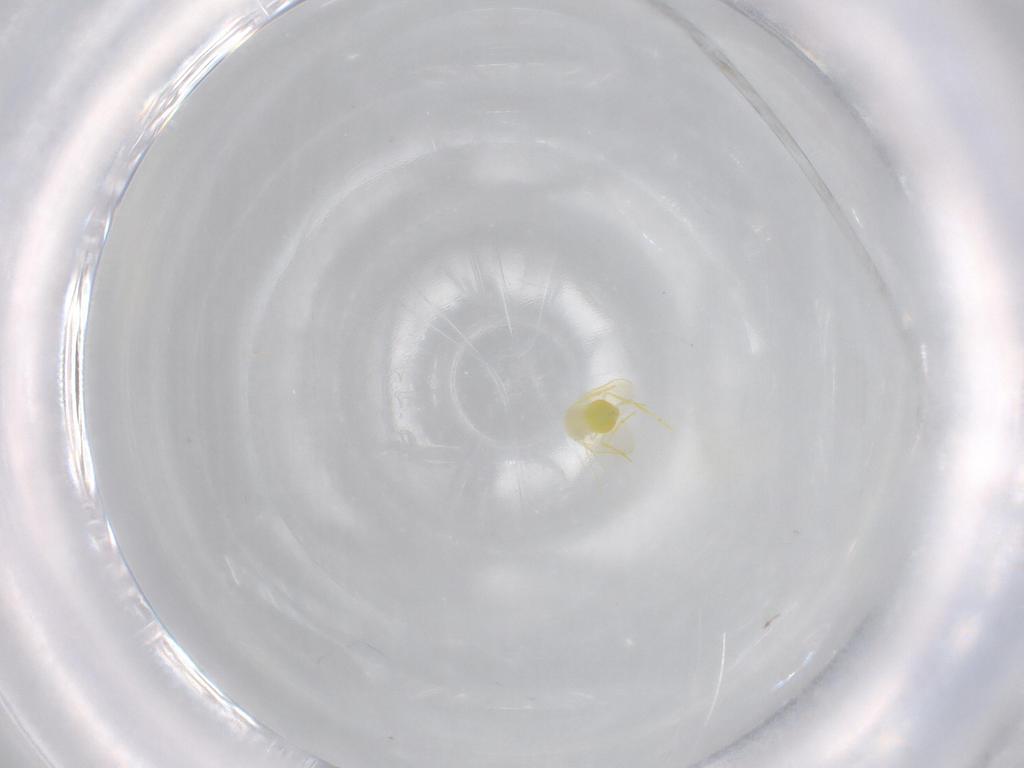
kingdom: Animalia
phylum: Arthropoda
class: Insecta
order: Hemiptera
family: Aleyrodidae
